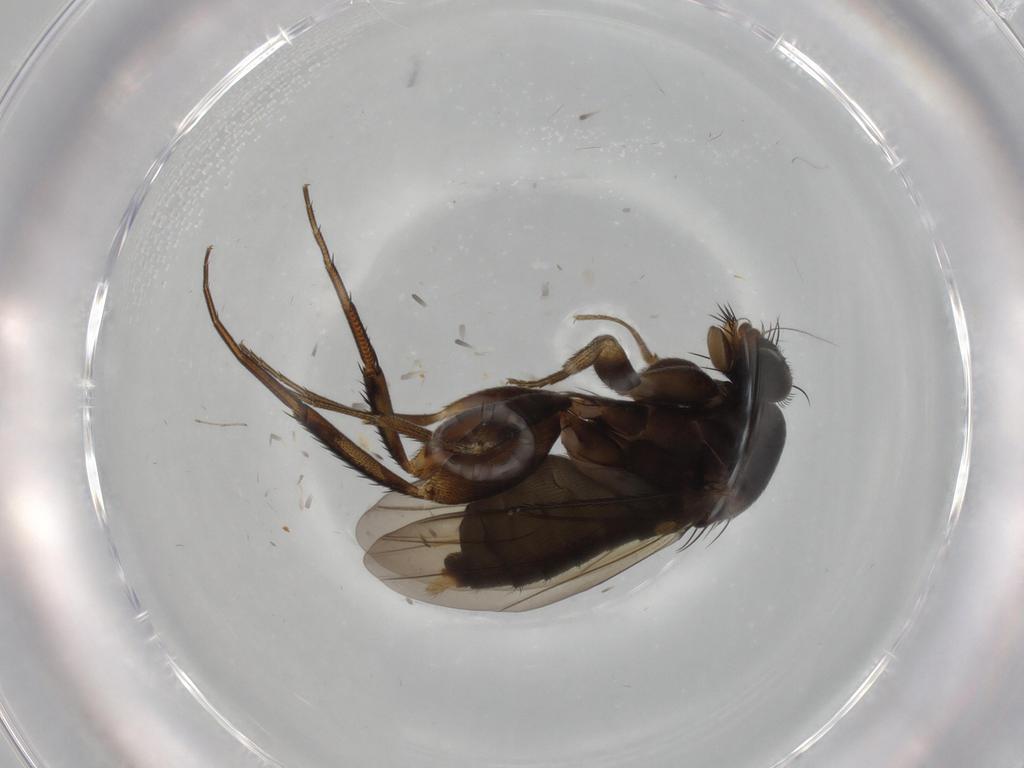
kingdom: Animalia
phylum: Arthropoda
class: Insecta
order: Diptera
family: Phoridae
